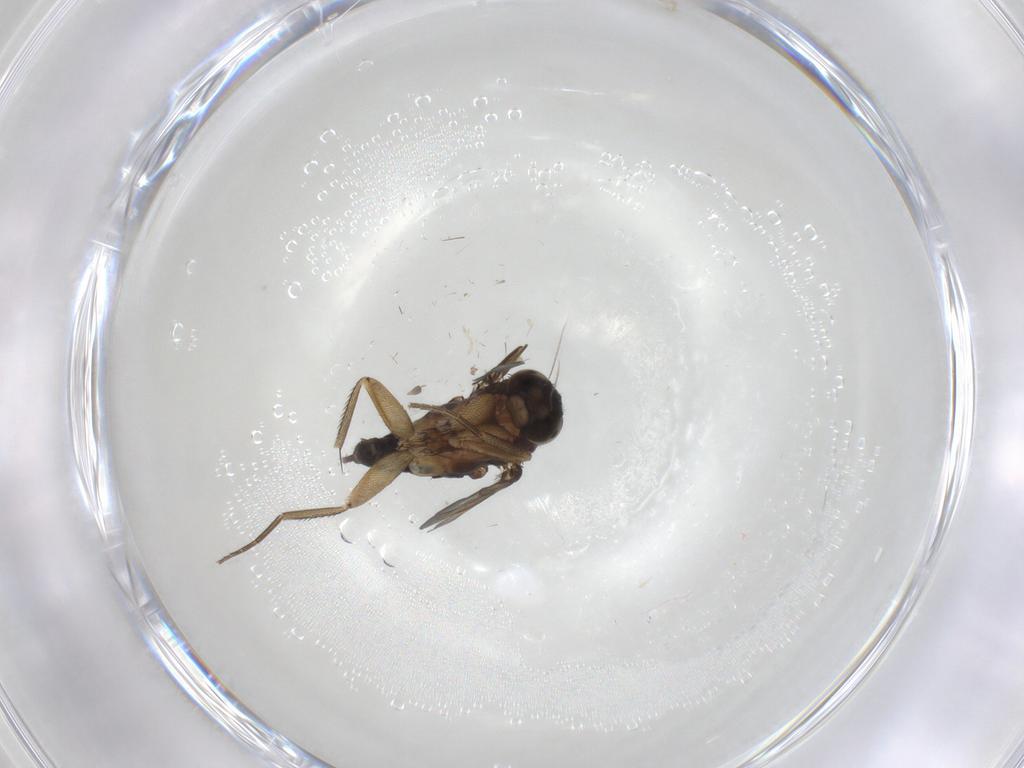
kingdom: Animalia
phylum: Arthropoda
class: Insecta
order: Diptera
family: Phoridae
